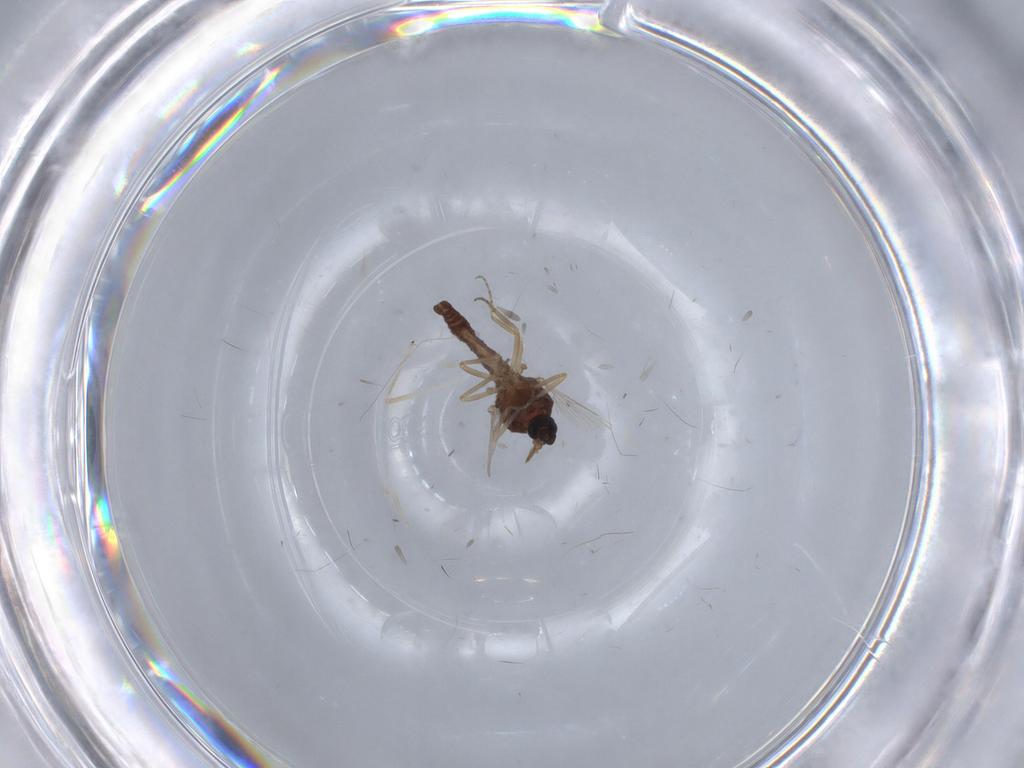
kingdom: Animalia
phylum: Arthropoda
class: Insecta
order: Diptera
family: Ceratopogonidae
